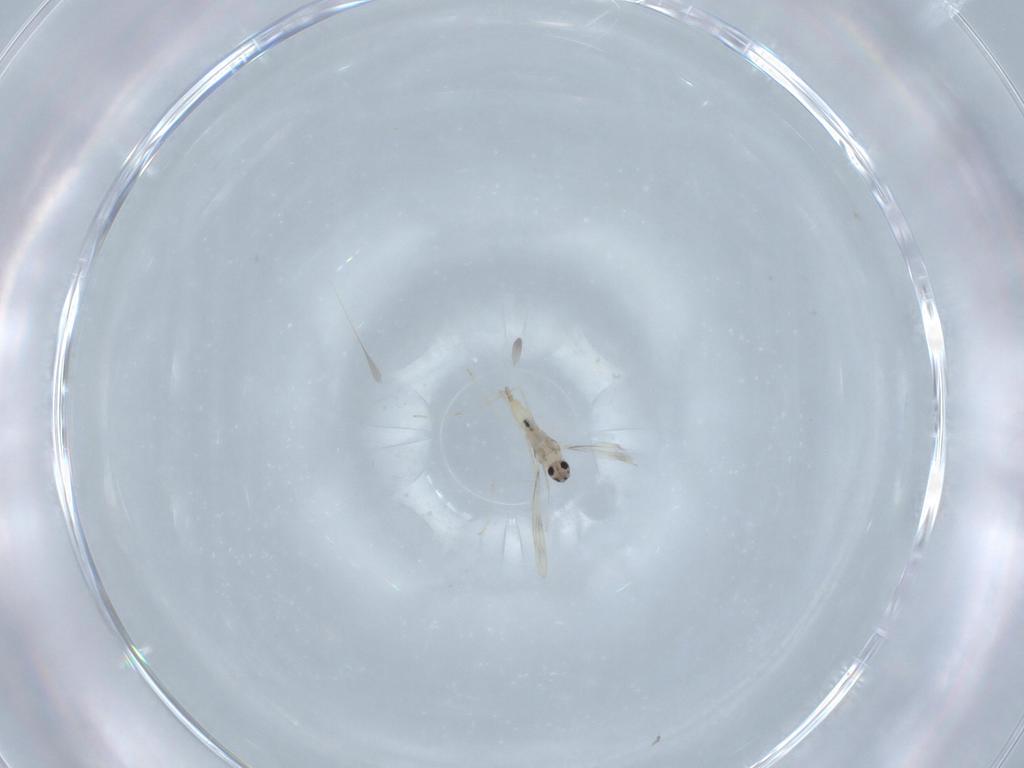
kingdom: Animalia
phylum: Arthropoda
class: Insecta
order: Diptera
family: Cecidomyiidae
